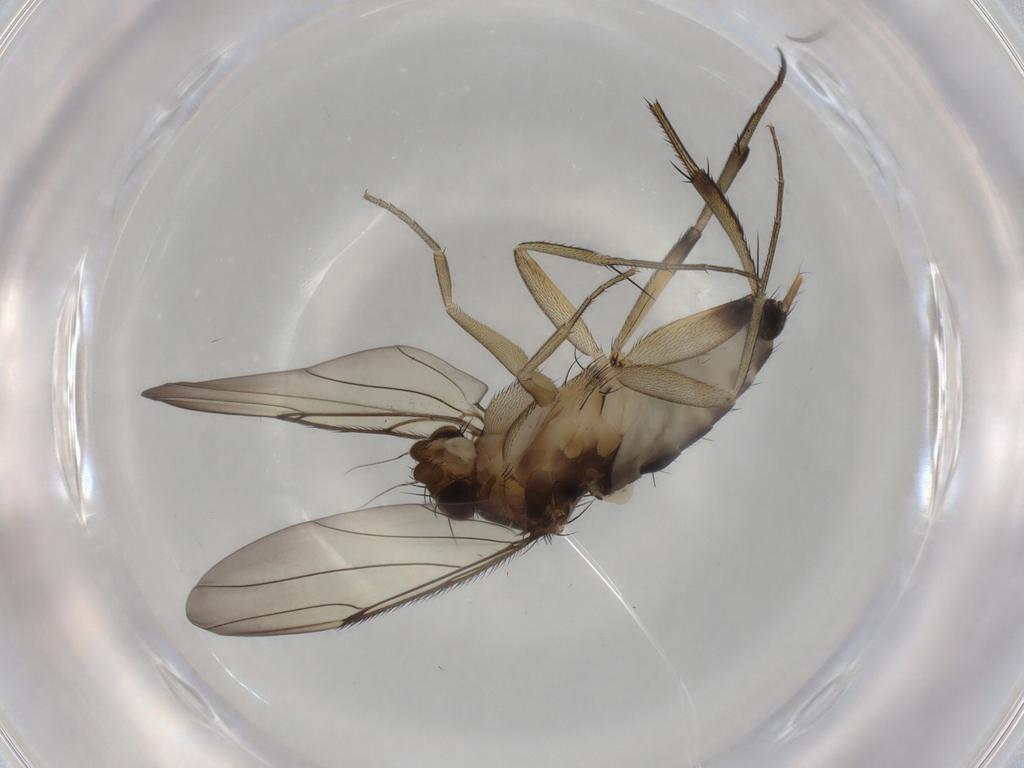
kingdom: Animalia
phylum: Arthropoda
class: Insecta
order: Diptera
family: Phoridae
